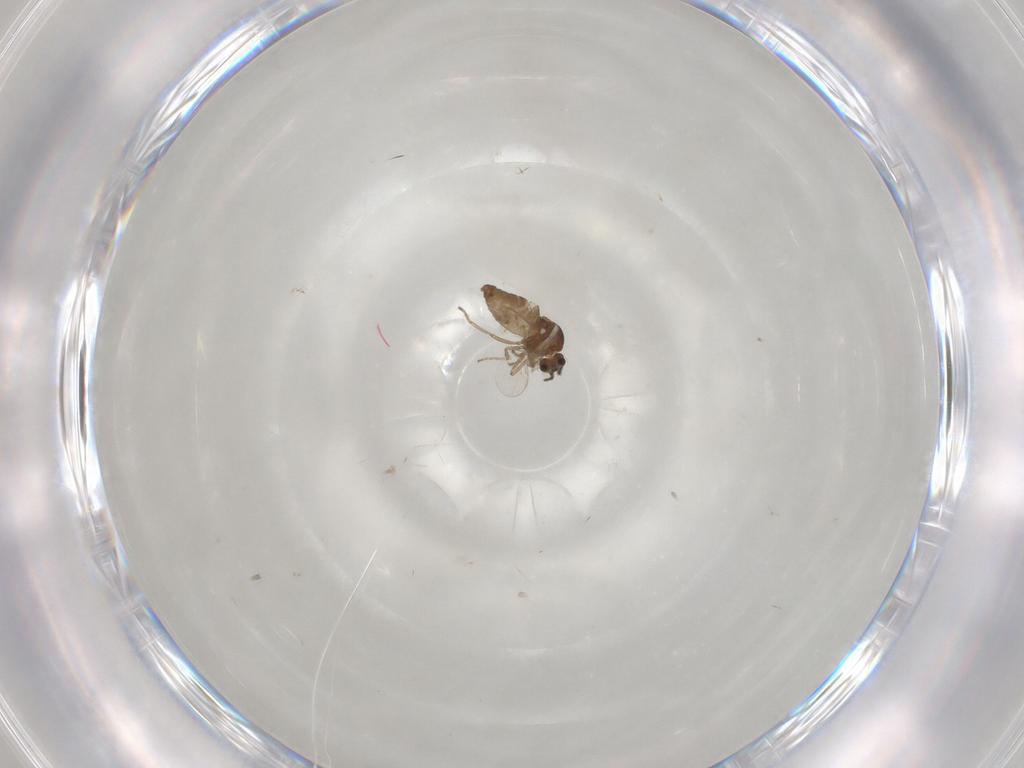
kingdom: Animalia
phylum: Arthropoda
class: Insecta
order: Diptera
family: Ceratopogonidae
